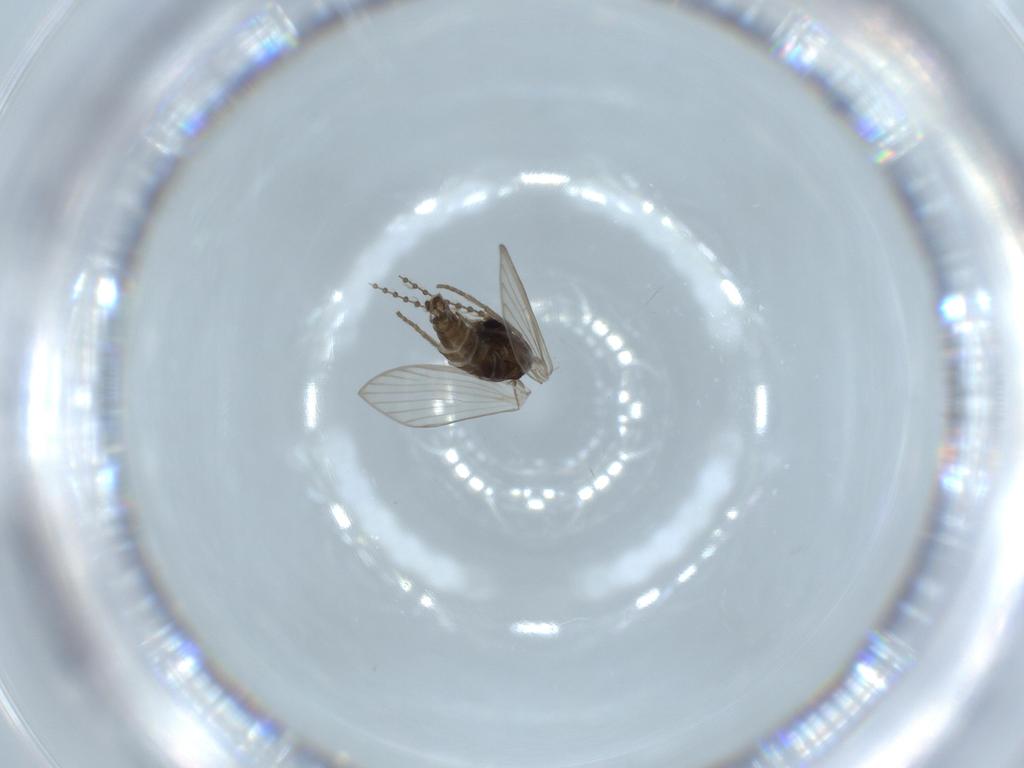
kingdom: Animalia
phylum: Arthropoda
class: Insecta
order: Diptera
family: Psychodidae
